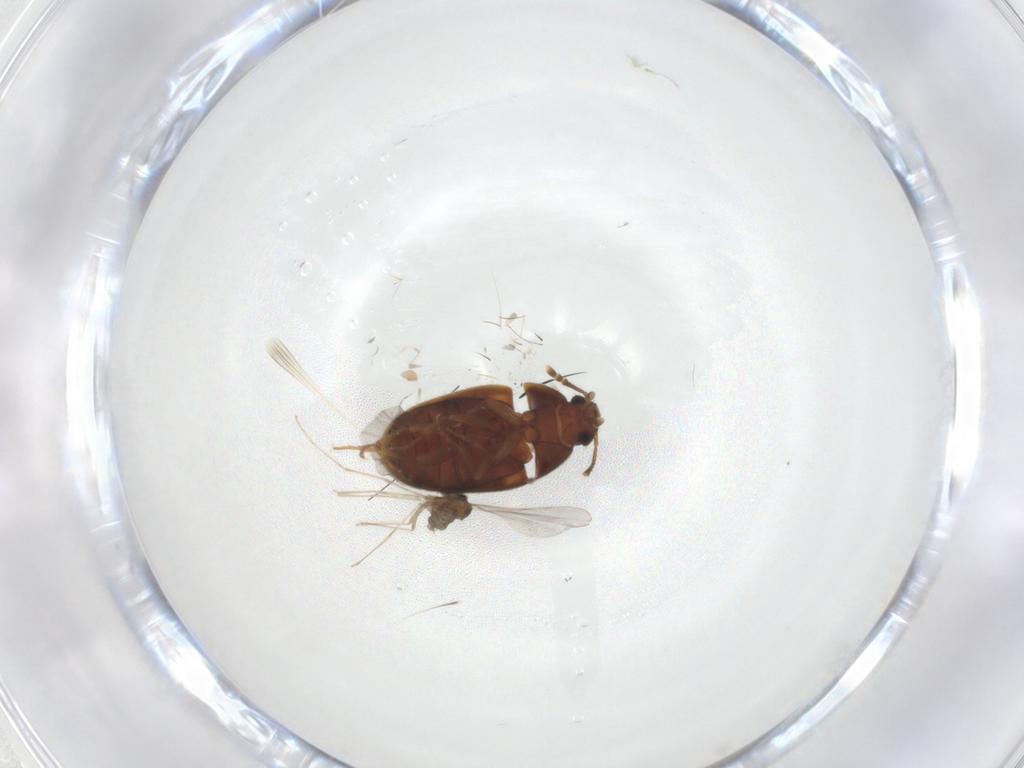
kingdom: Animalia
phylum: Arthropoda
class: Insecta
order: Diptera
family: Cecidomyiidae
